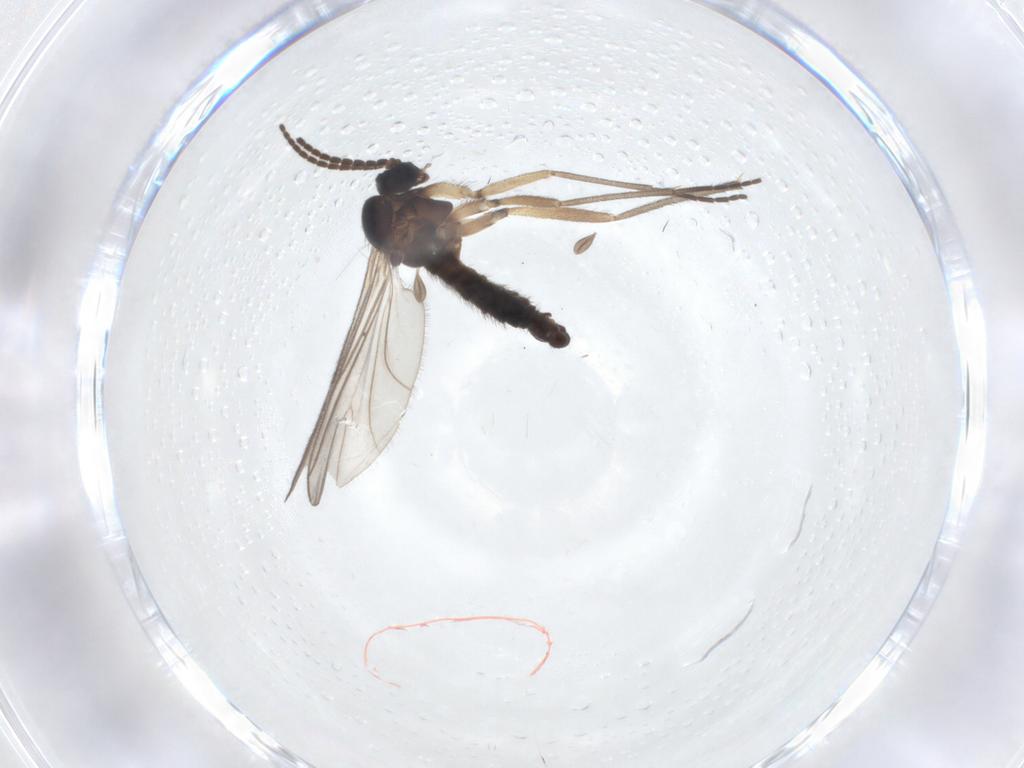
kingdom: Animalia
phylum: Arthropoda
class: Insecta
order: Diptera
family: Sciaridae
